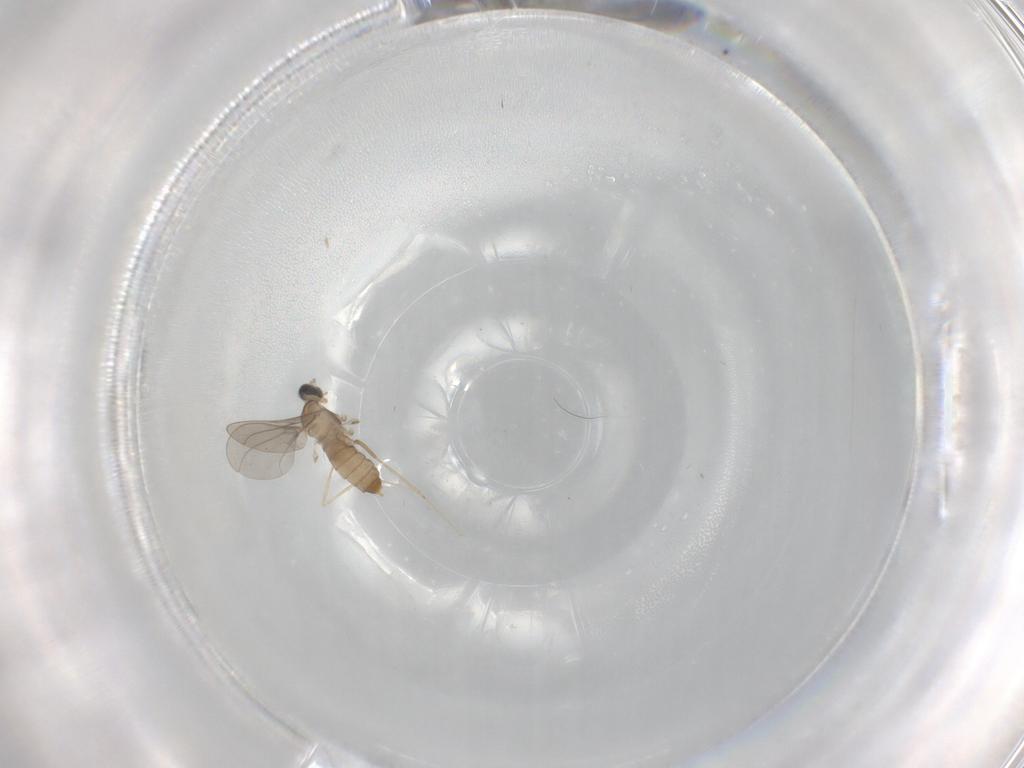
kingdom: Animalia
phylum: Arthropoda
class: Insecta
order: Diptera
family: Cecidomyiidae
